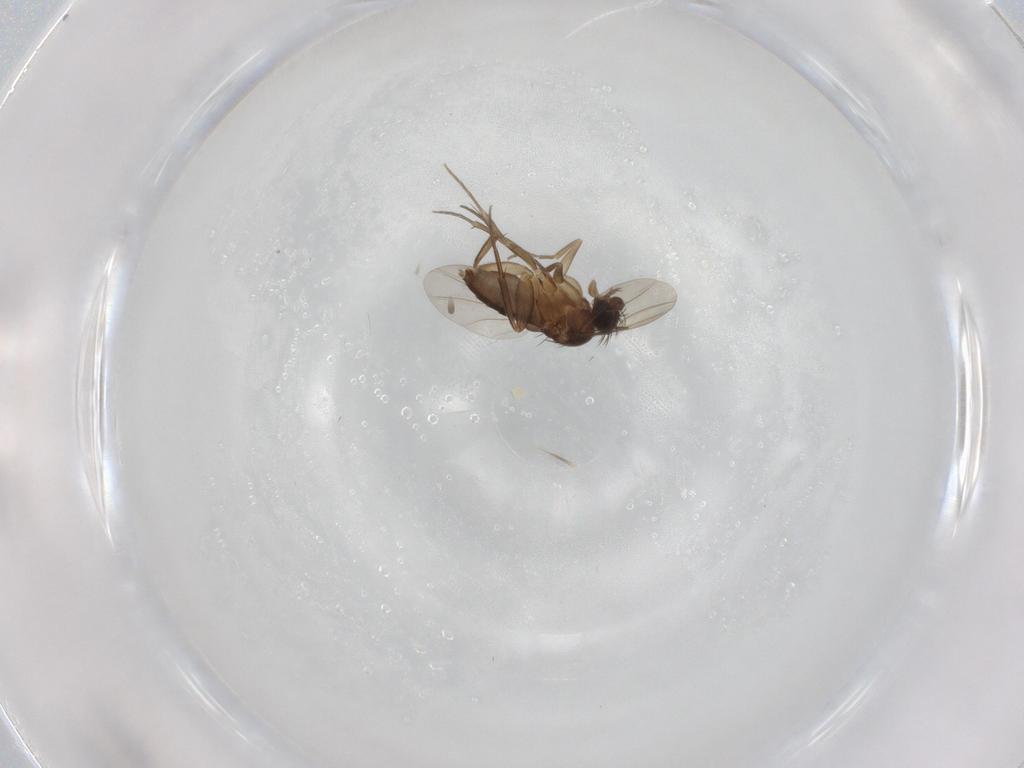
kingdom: Animalia
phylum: Arthropoda
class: Insecta
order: Diptera
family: Phoridae
